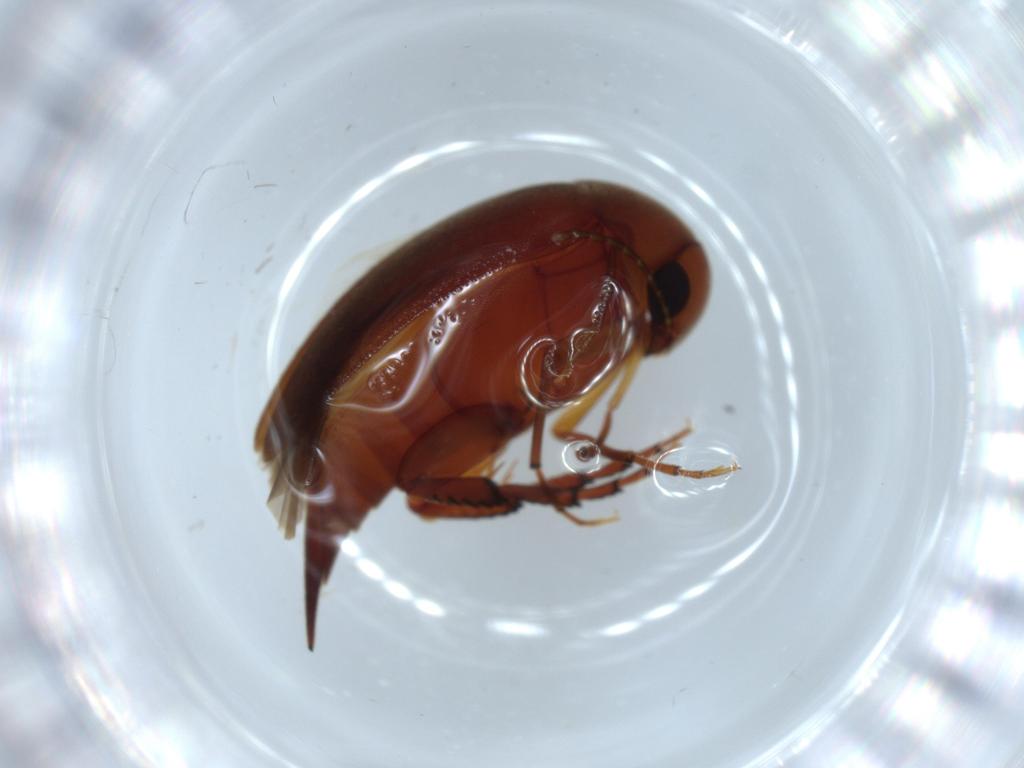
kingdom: Animalia
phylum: Arthropoda
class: Insecta
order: Coleoptera
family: Mordellidae
